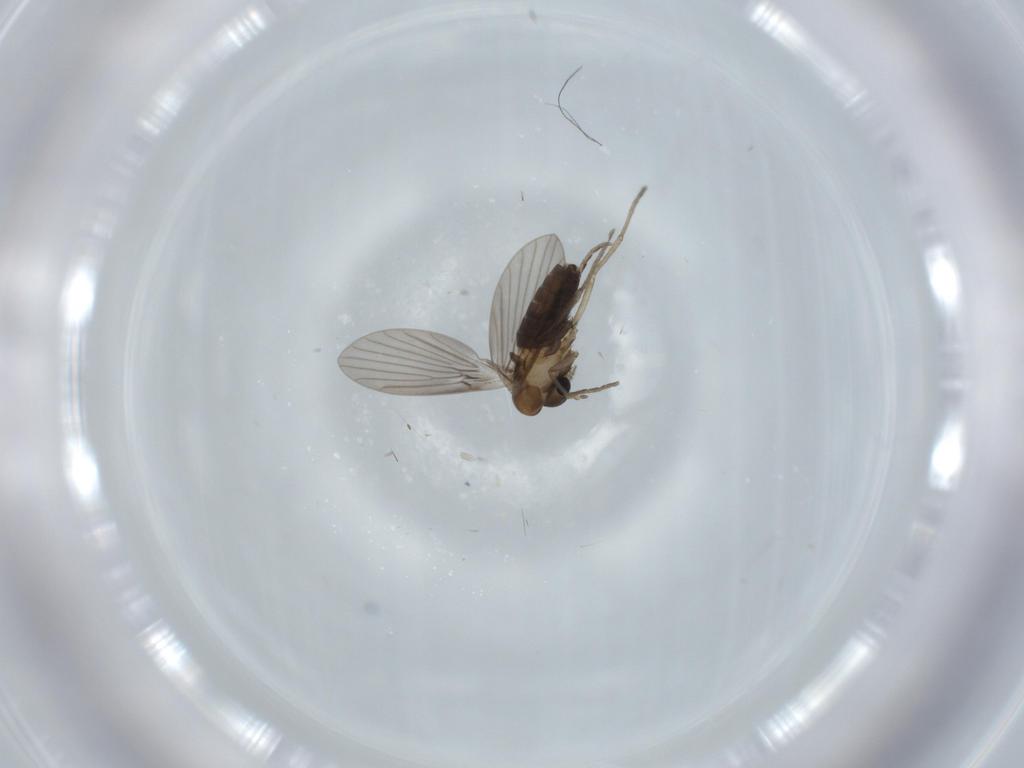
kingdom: Animalia
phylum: Arthropoda
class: Insecta
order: Diptera
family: Psychodidae
